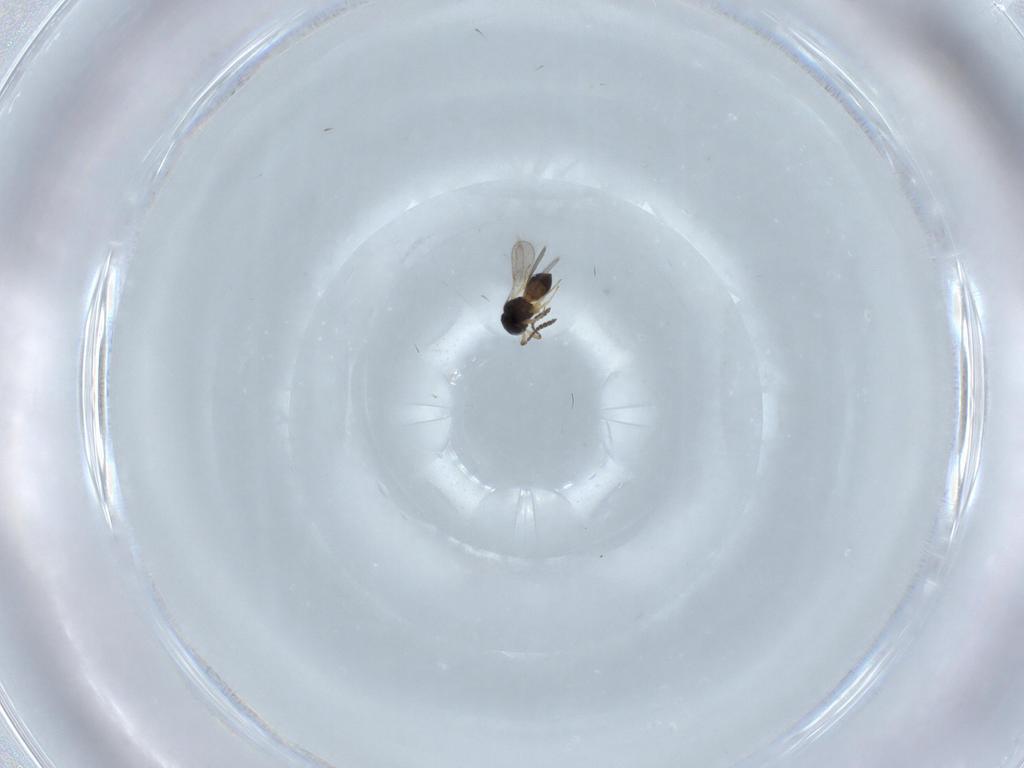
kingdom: Animalia
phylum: Arthropoda
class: Insecta
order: Hymenoptera
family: Scelionidae
